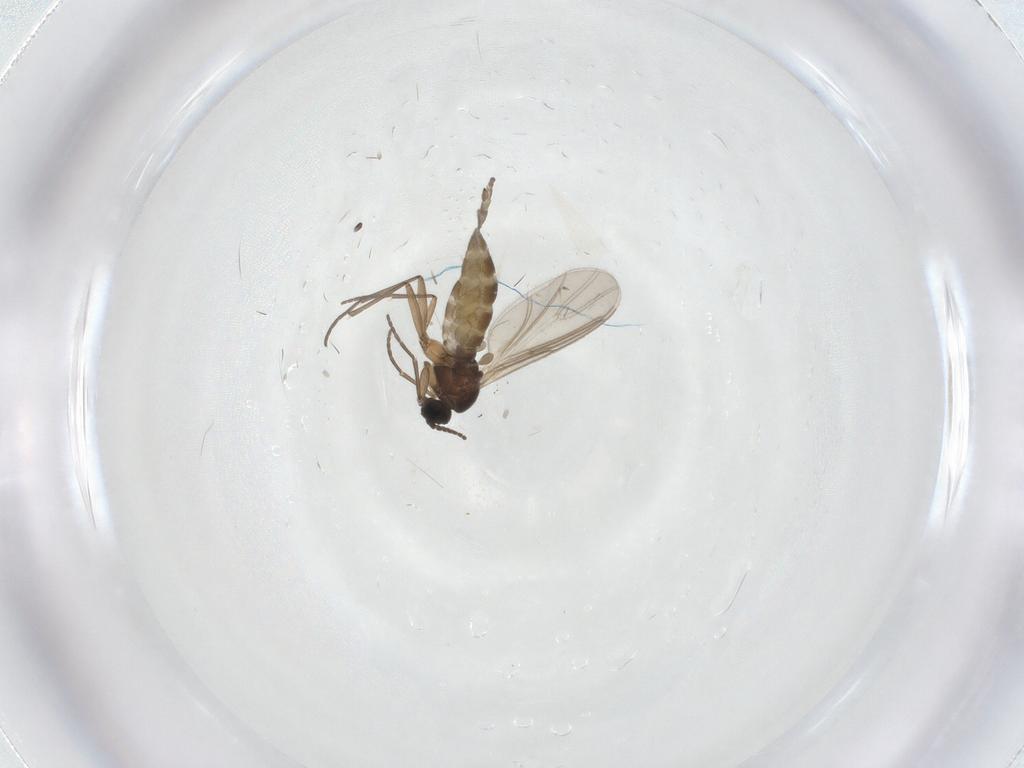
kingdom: Animalia
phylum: Arthropoda
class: Insecta
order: Diptera
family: Sciaridae
